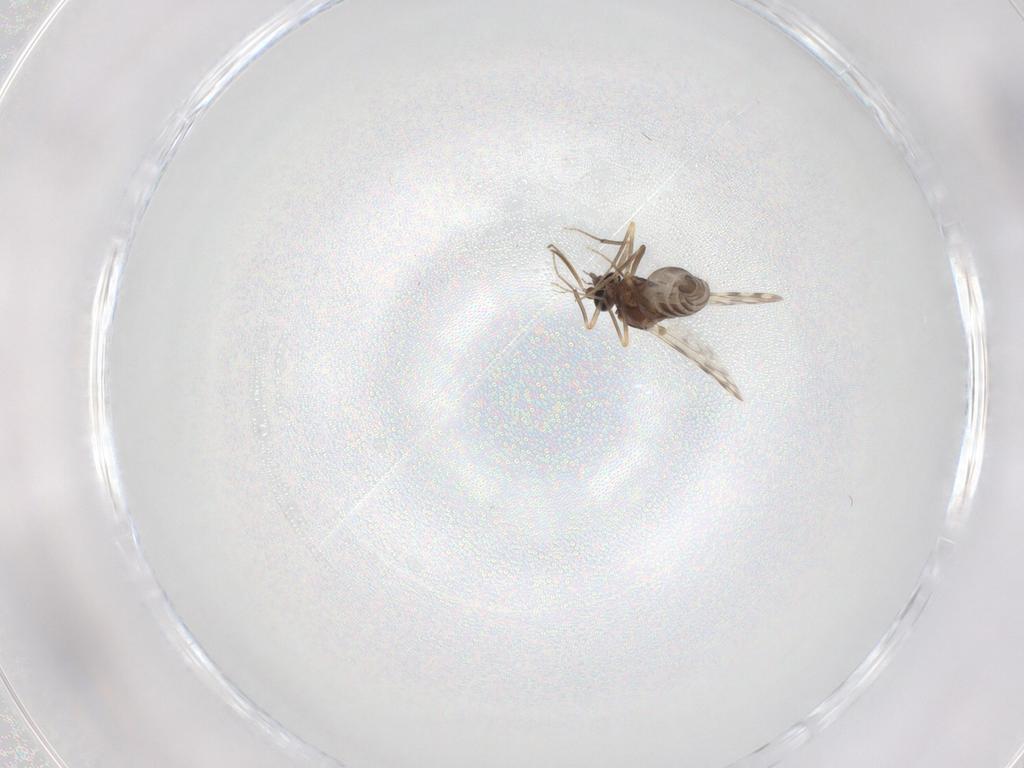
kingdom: Animalia
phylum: Arthropoda
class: Insecta
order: Diptera
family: Ceratopogonidae
